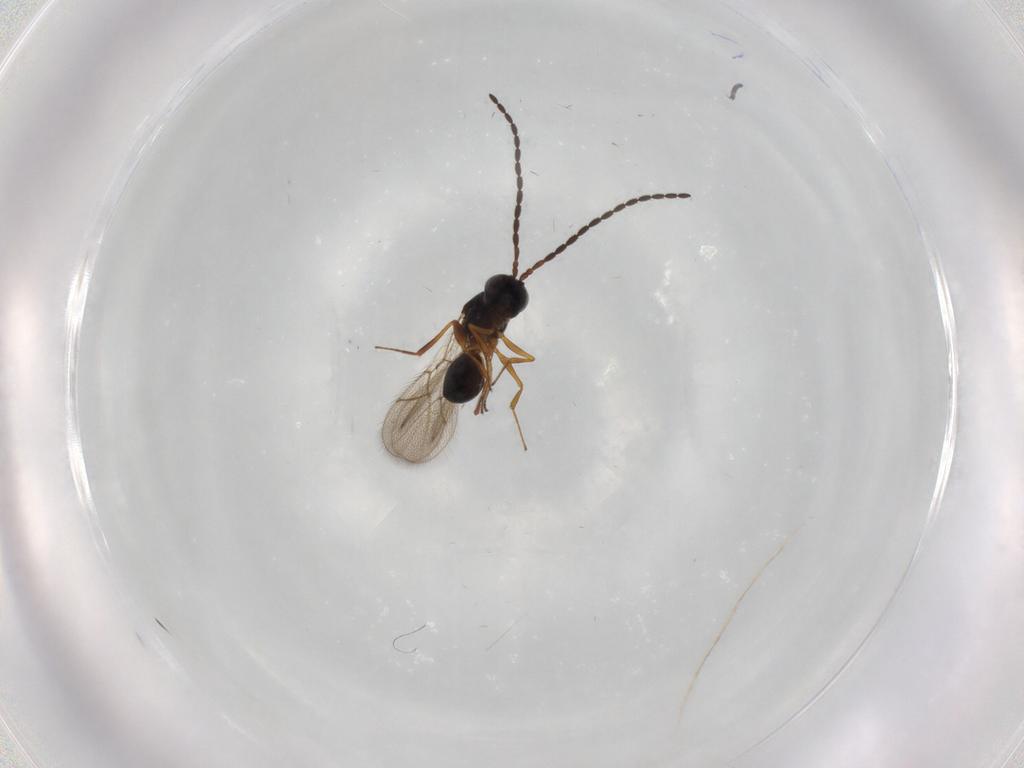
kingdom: Animalia
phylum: Arthropoda
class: Insecta
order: Hymenoptera
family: Figitidae
